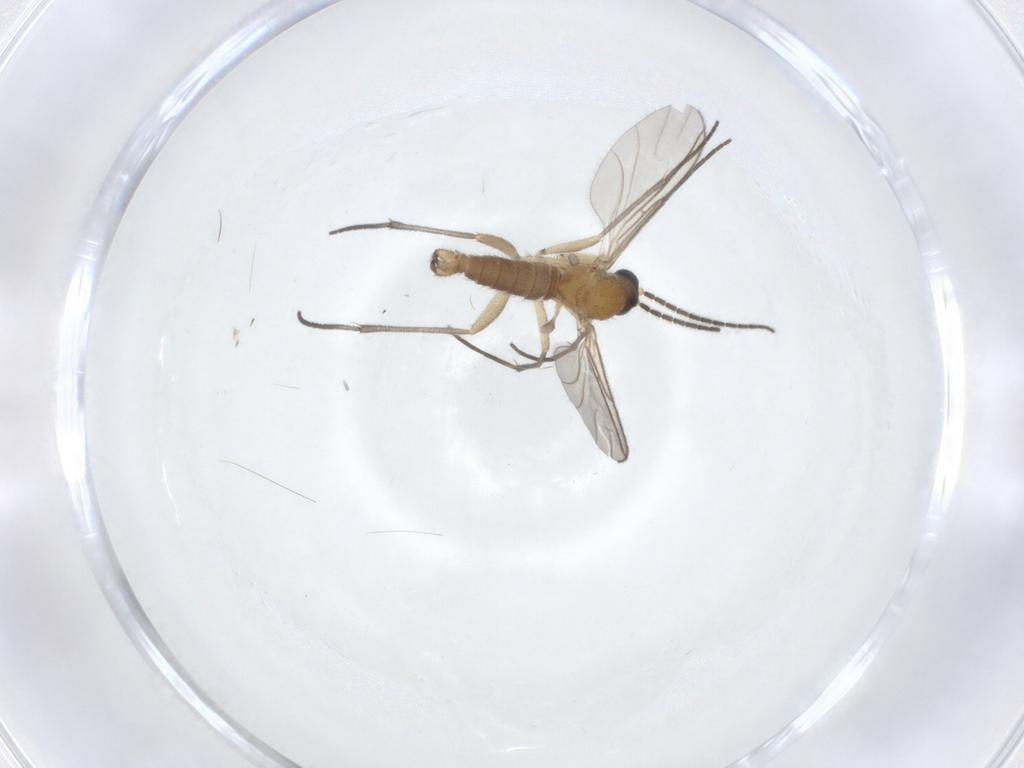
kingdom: Animalia
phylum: Arthropoda
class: Insecta
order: Diptera
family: Sciaridae
